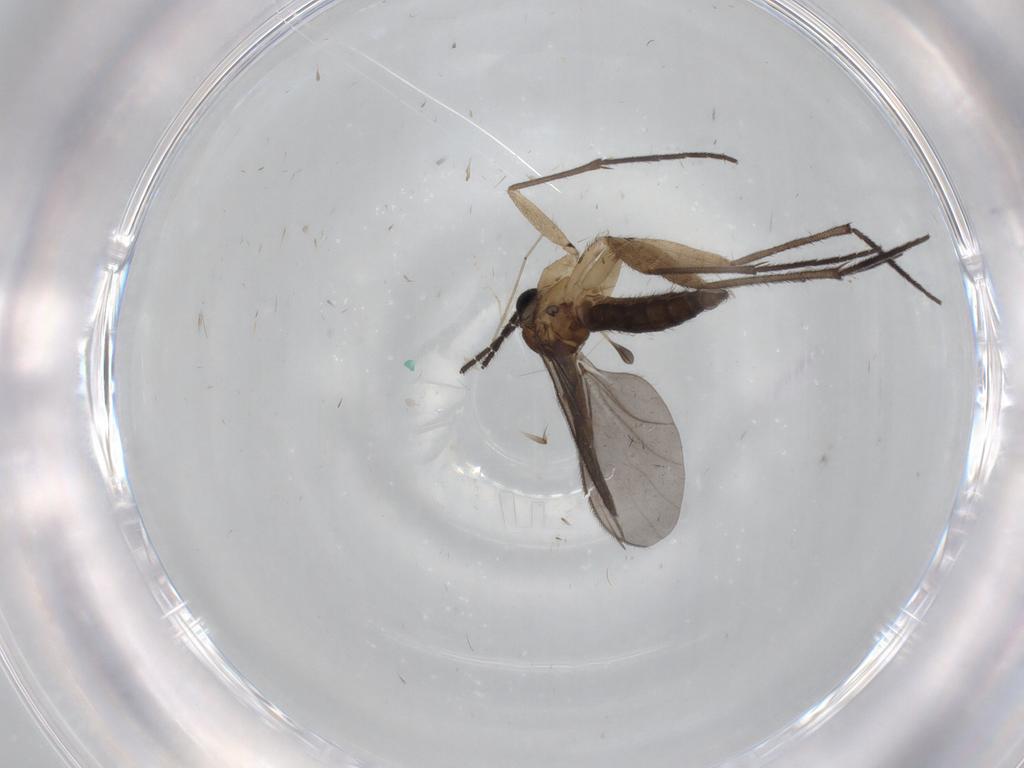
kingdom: Animalia
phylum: Arthropoda
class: Insecta
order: Diptera
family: Sciaridae
